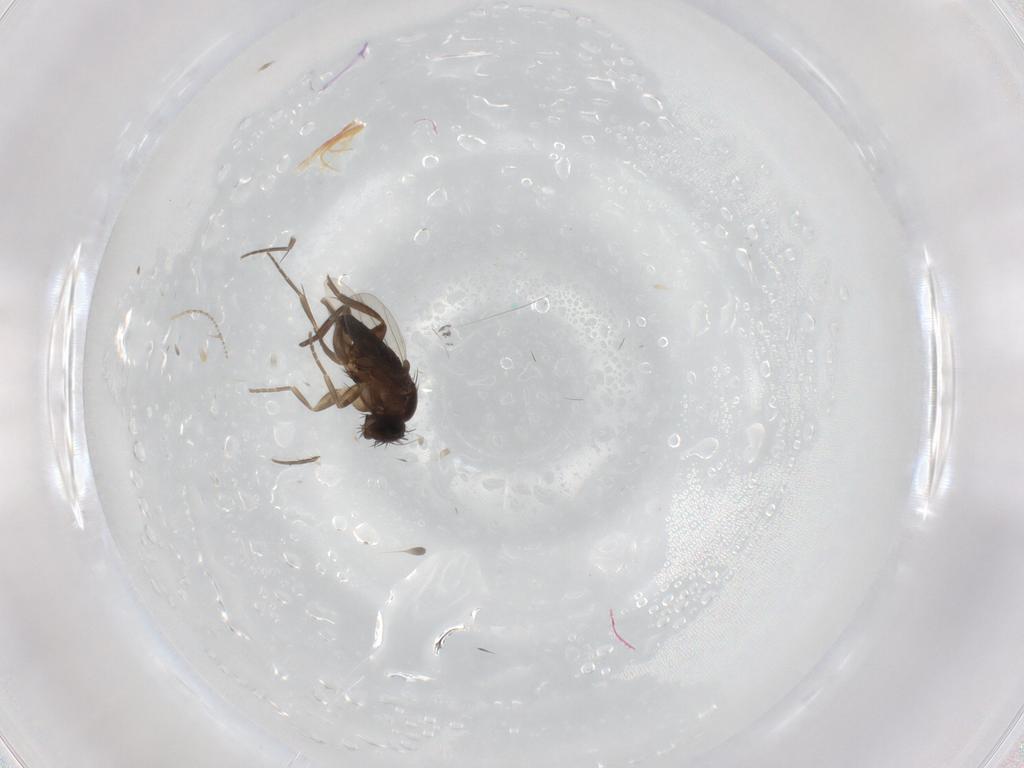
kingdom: Animalia
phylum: Arthropoda
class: Insecta
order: Diptera
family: Phoridae
